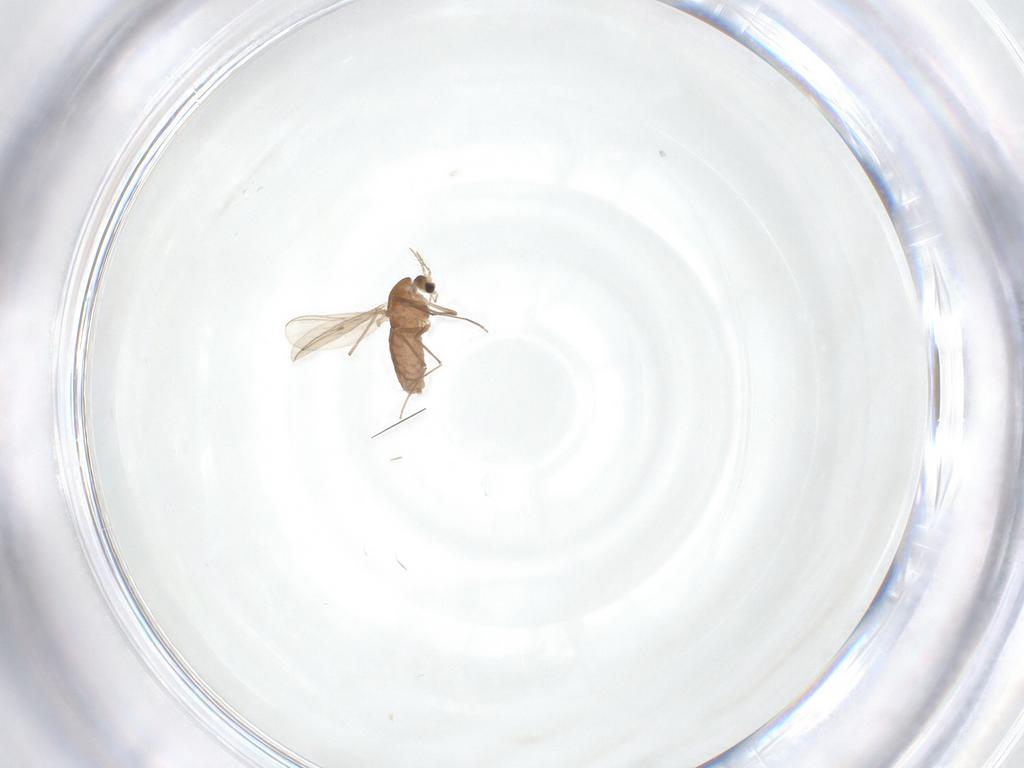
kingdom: Animalia
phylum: Arthropoda
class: Insecta
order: Diptera
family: Chironomidae
